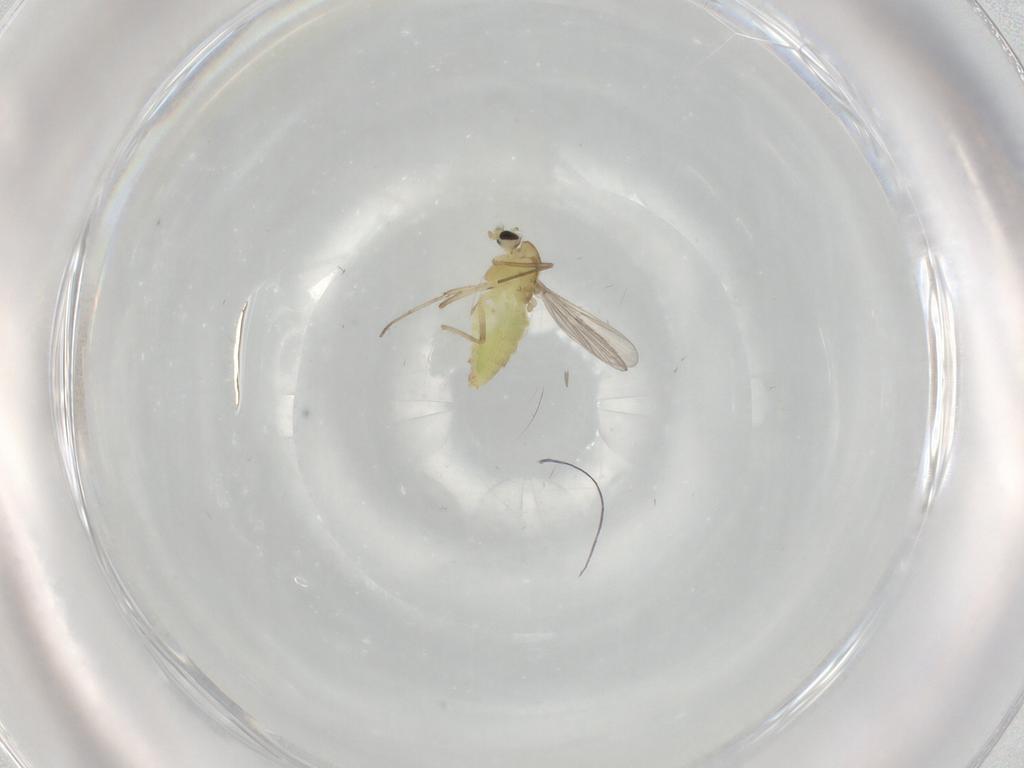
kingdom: Animalia
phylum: Arthropoda
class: Insecta
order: Diptera
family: Chironomidae
